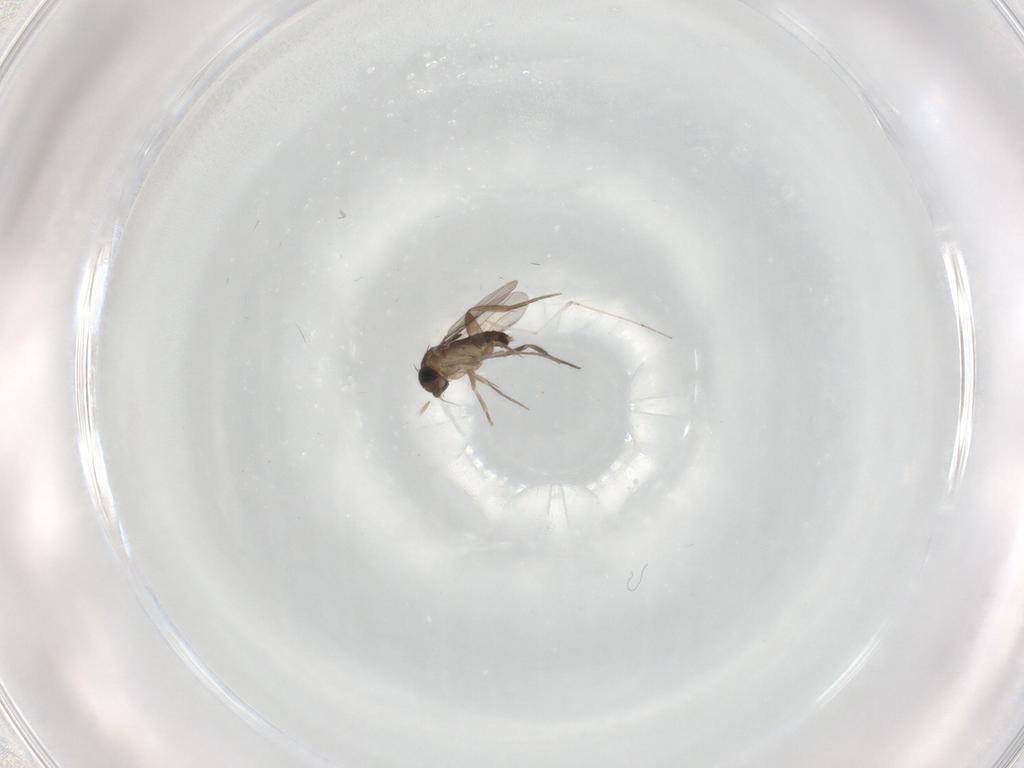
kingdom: Animalia
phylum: Arthropoda
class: Insecta
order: Diptera
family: Phoridae
